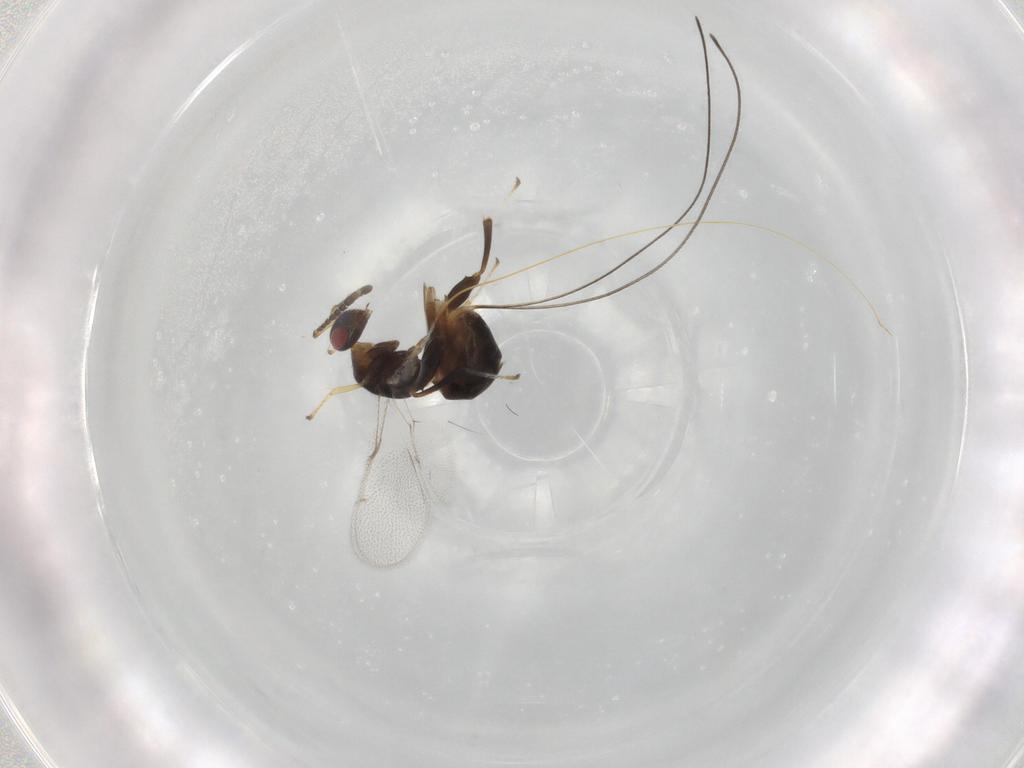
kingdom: Animalia
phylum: Arthropoda
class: Insecta
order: Hymenoptera
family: Torymidae
